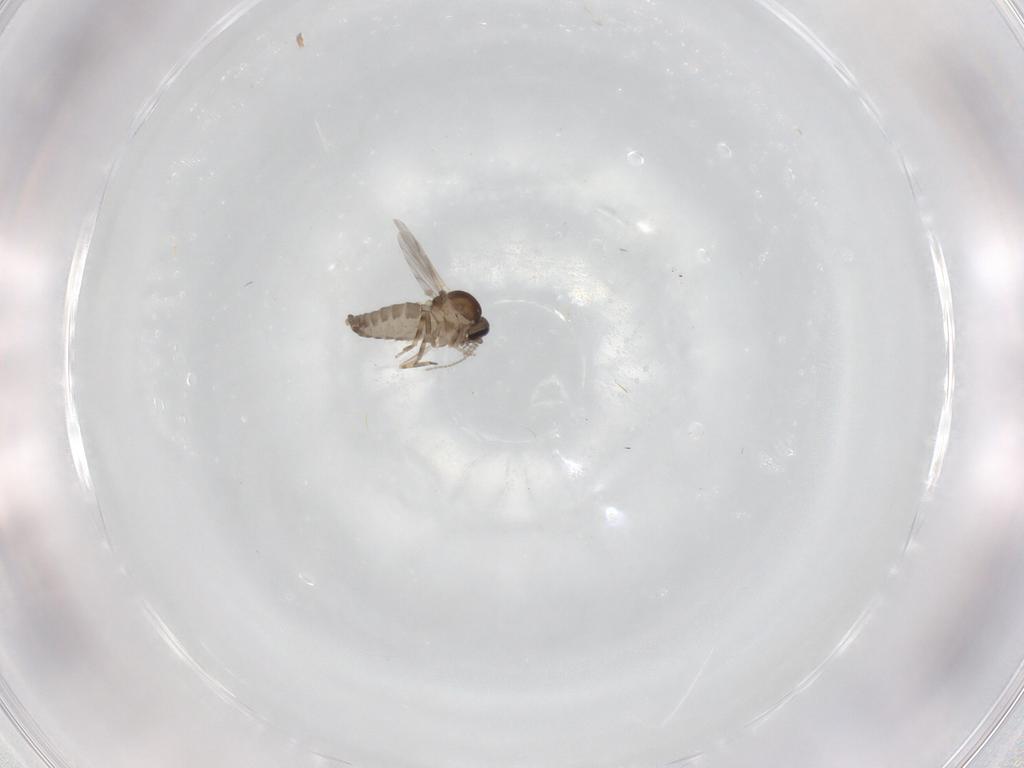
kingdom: Animalia
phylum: Arthropoda
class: Insecta
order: Diptera
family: Ceratopogonidae
